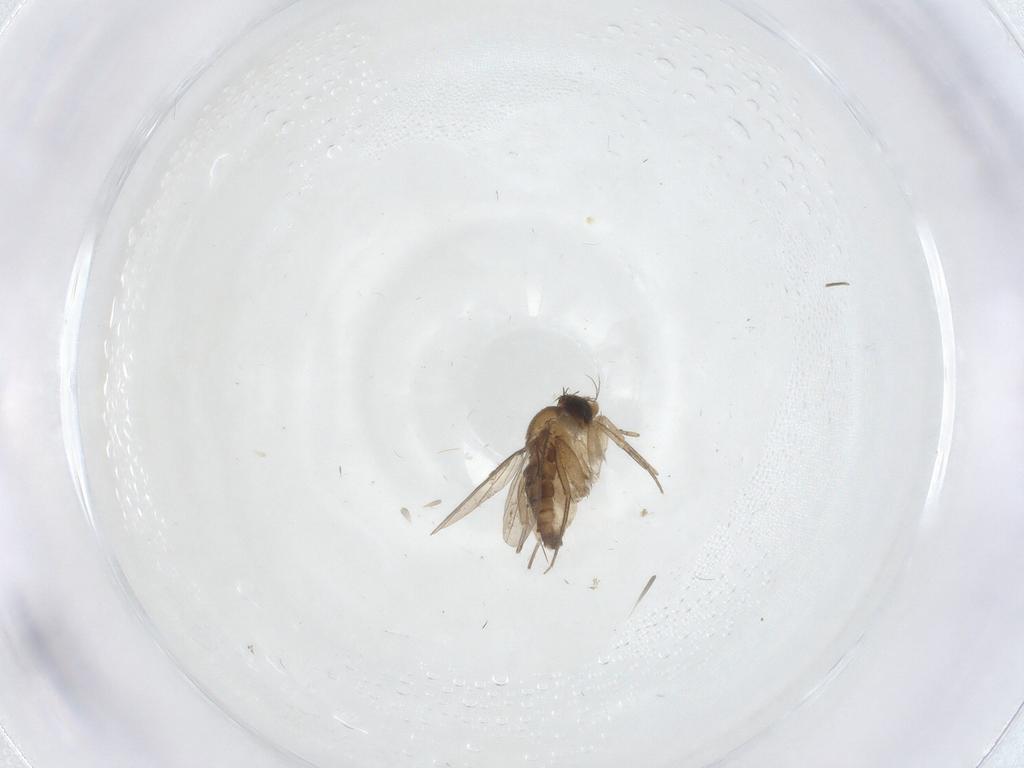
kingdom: Animalia
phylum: Arthropoda
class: Insecta
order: Diptera
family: Phoridae
